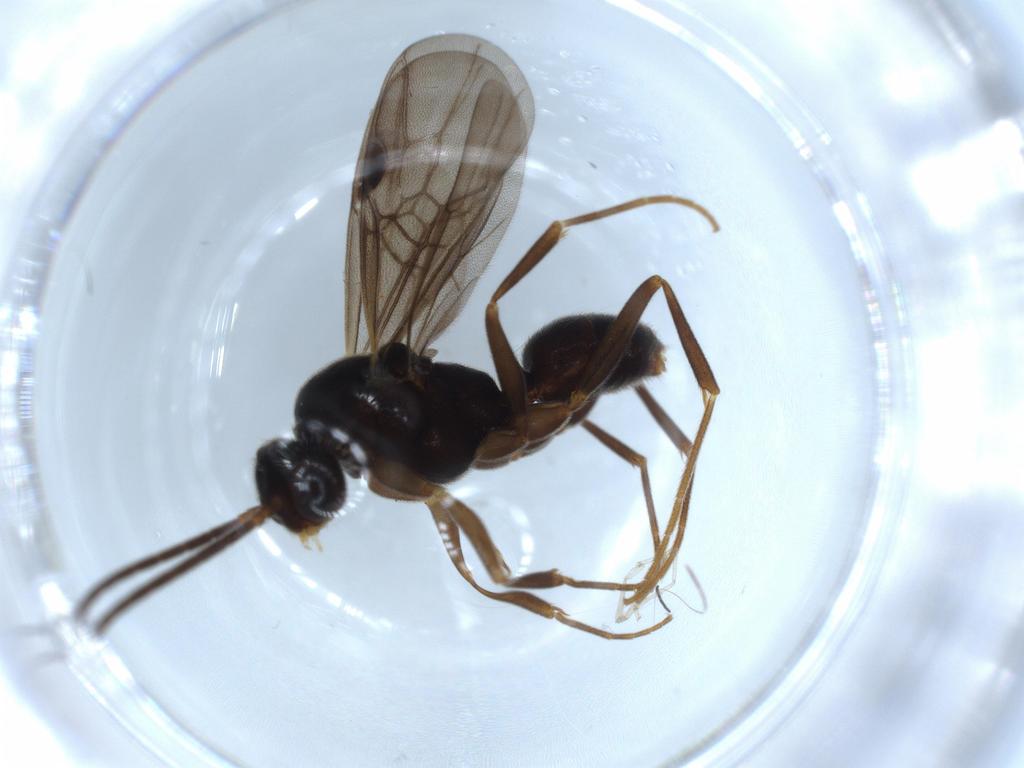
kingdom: Animalia
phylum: Arthropoda
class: Insecta
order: Hymenoptera
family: Formicidae
